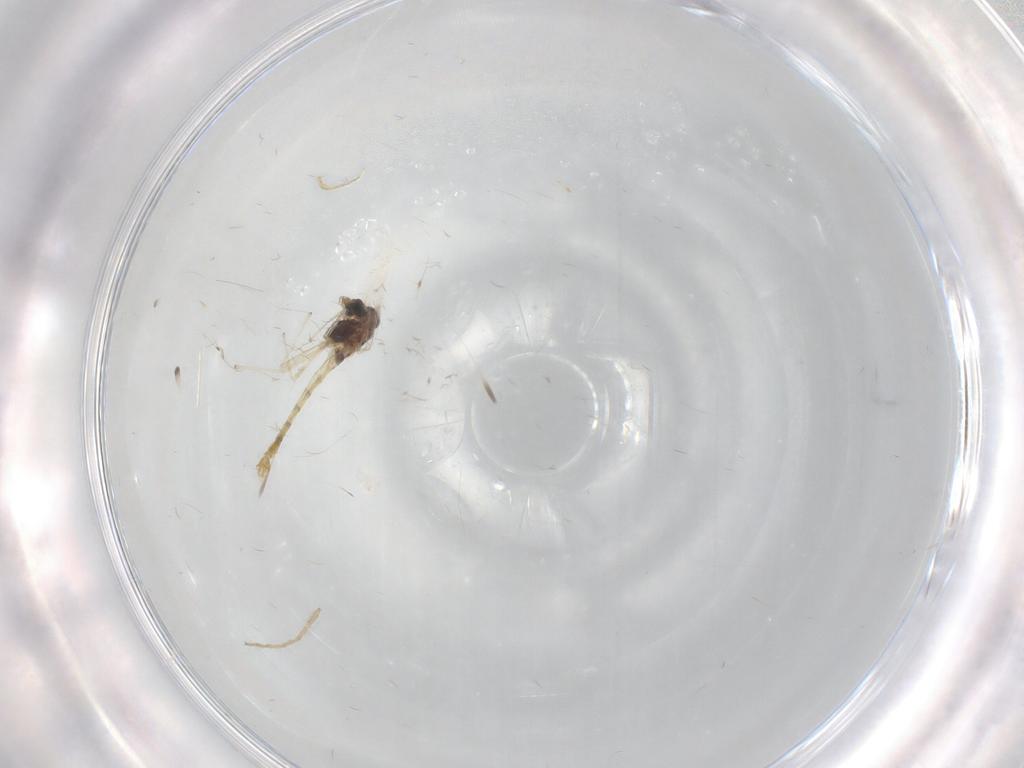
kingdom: Animalia
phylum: Arthropoda
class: Insecta
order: Diptera
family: Chironomidae
